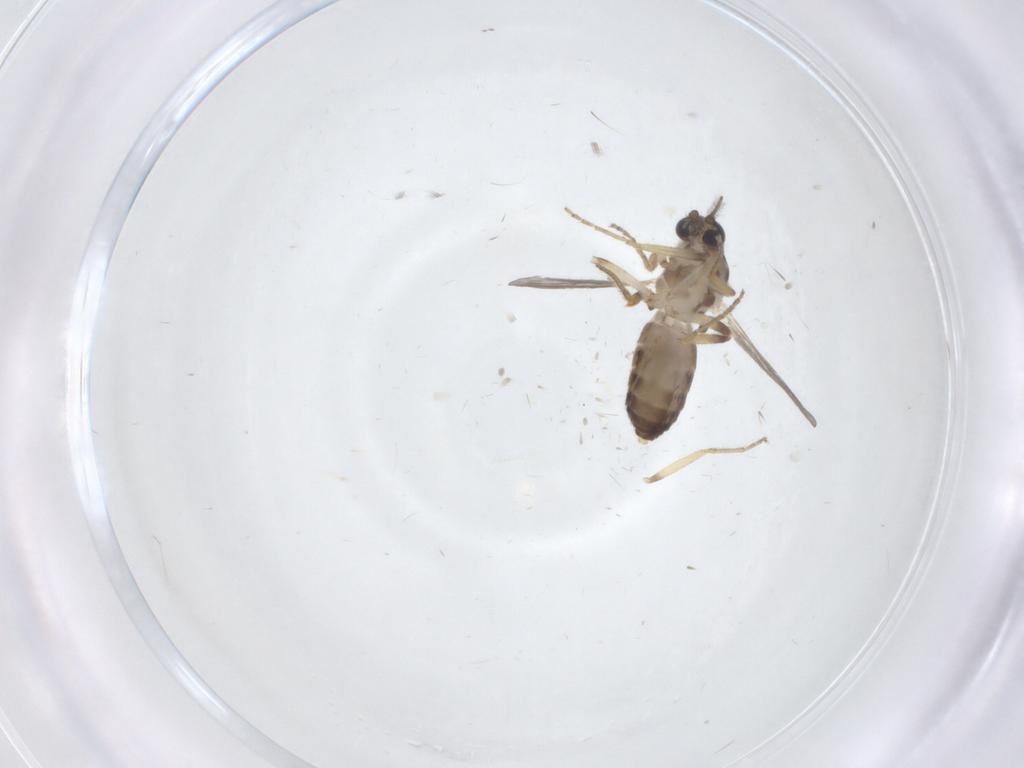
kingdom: Animalia
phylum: Arthropoda
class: Insecta
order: Diptera
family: Ceratopogonidae
